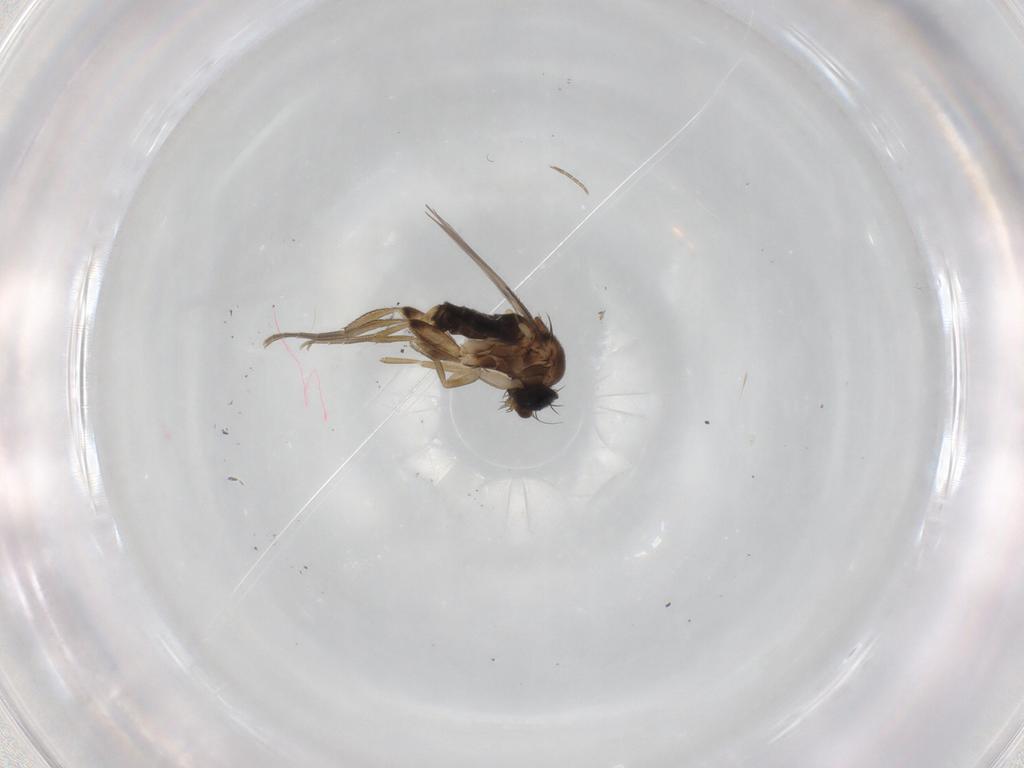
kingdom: Animalia
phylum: Arthropoda
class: Insecta
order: Diptera
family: Phoridae
